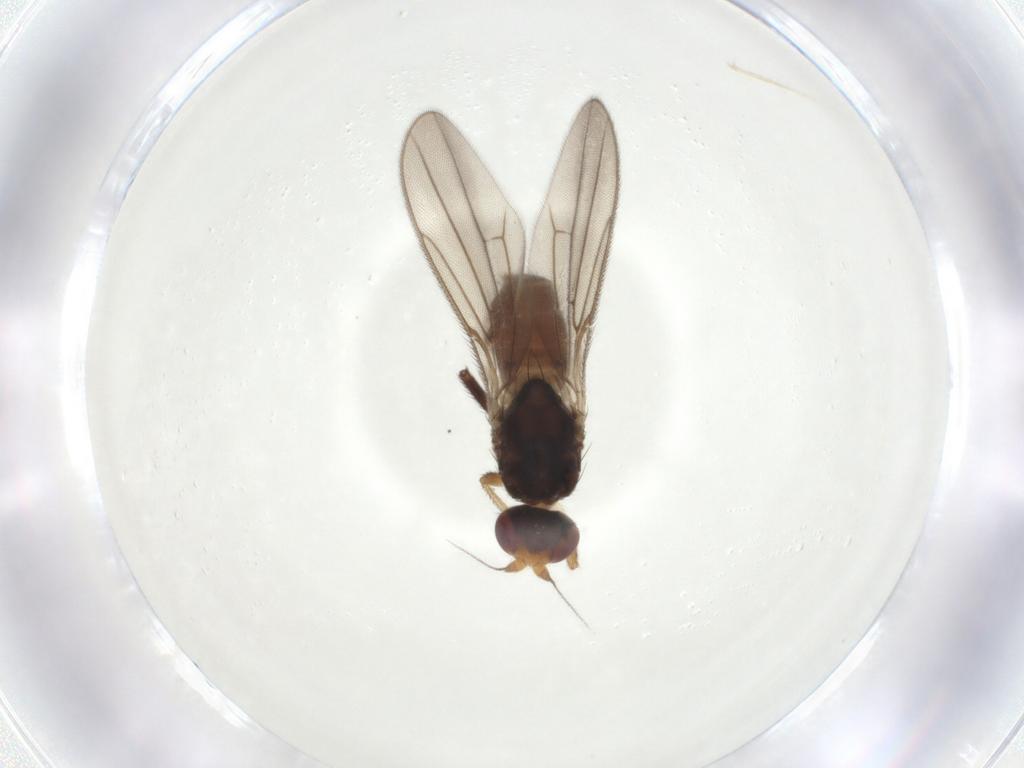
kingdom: Animalia
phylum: Arthropoda
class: Insecta
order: Diptera
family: Chloropidae
